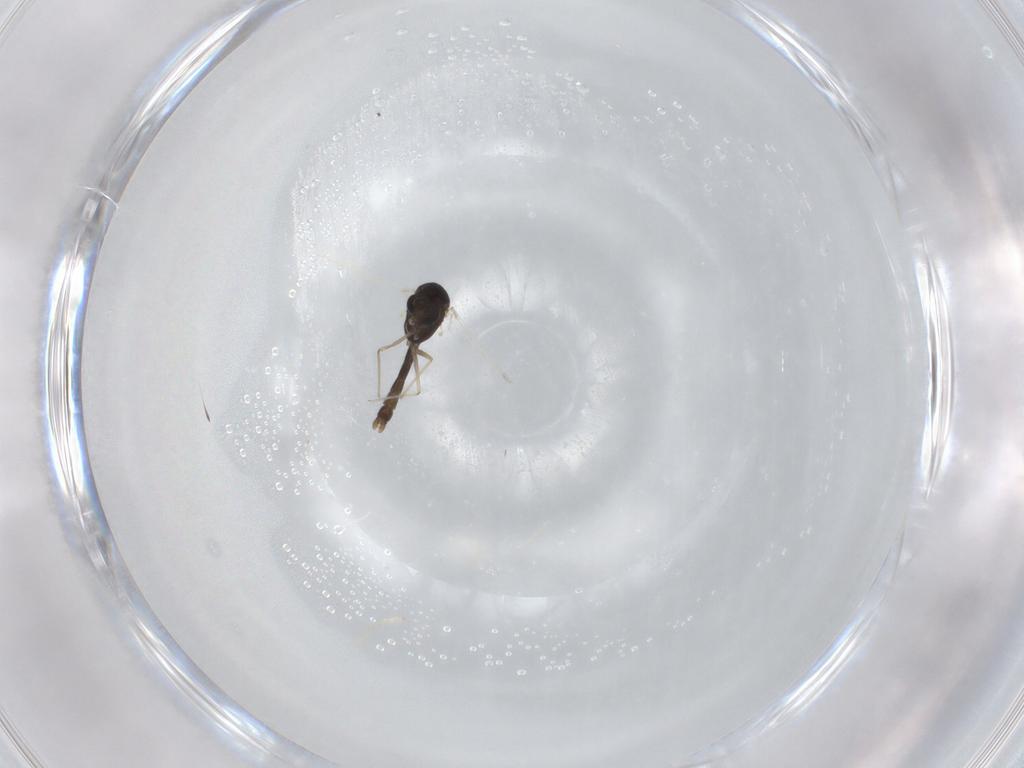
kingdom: Animalia
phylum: Arthropoda
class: Insecta
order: Diptera
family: Chironomidae
